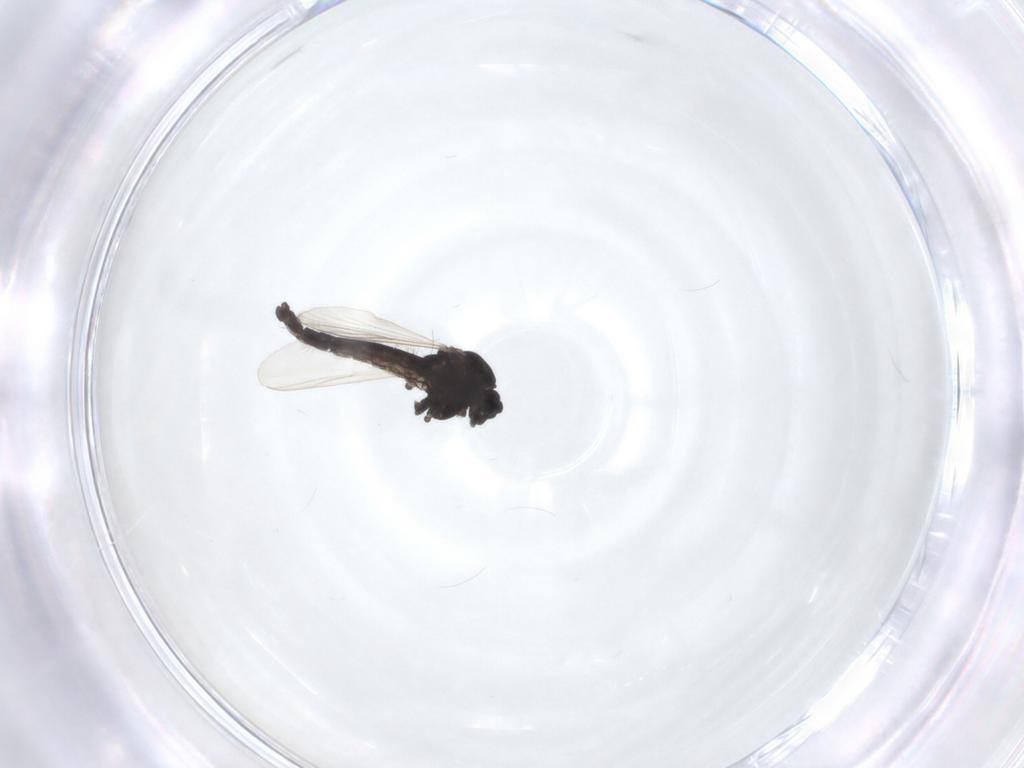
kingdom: Animalia
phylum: Arthropoda
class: Insecta
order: Diptera
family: Chironomidae
